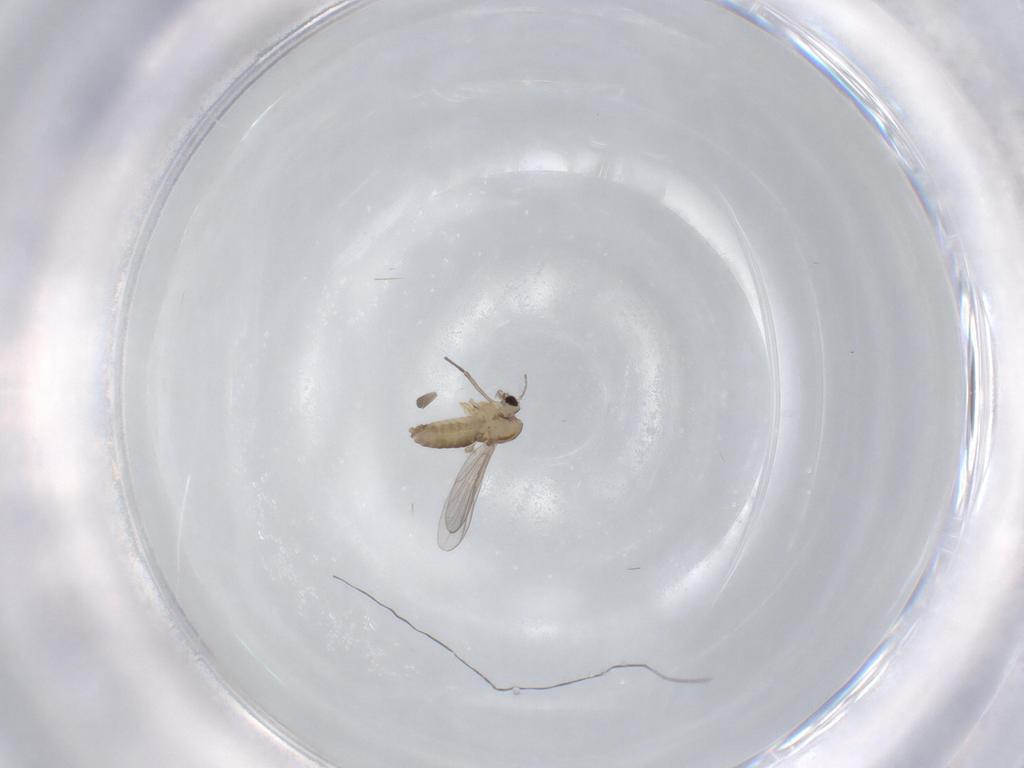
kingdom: Animalia
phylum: Arthropoda
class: Insecta
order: Diptera
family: Chironomidae
